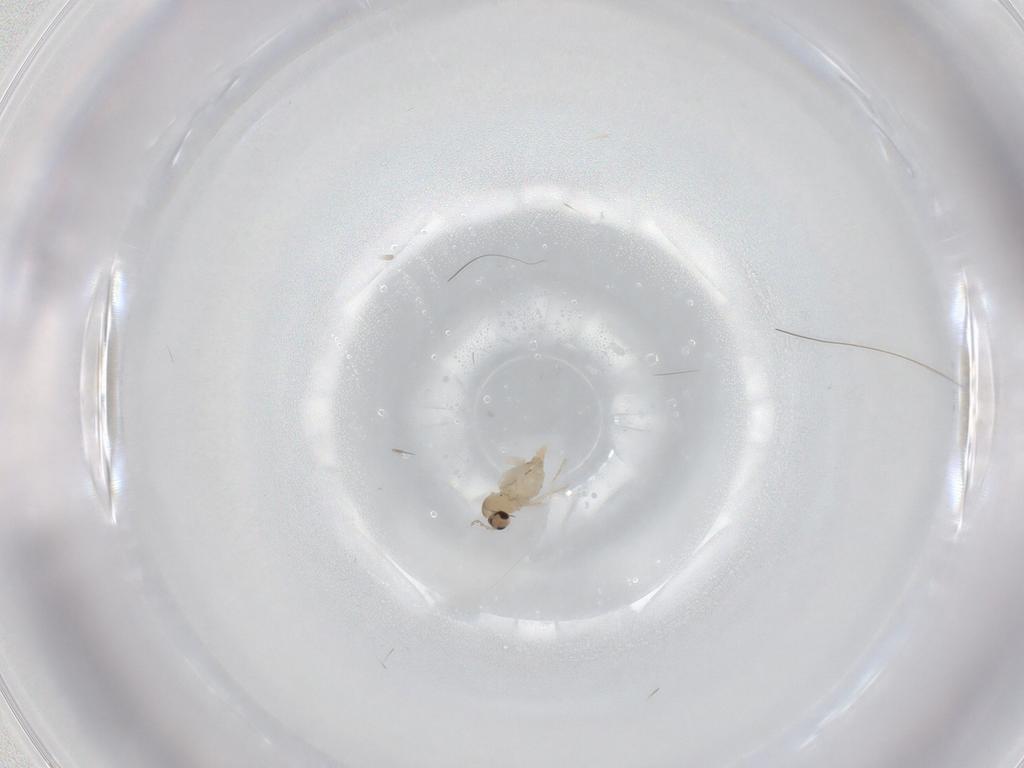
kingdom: Animalia
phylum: Arthropoda
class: Insecta
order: Diptera
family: Cecidomyiidae
